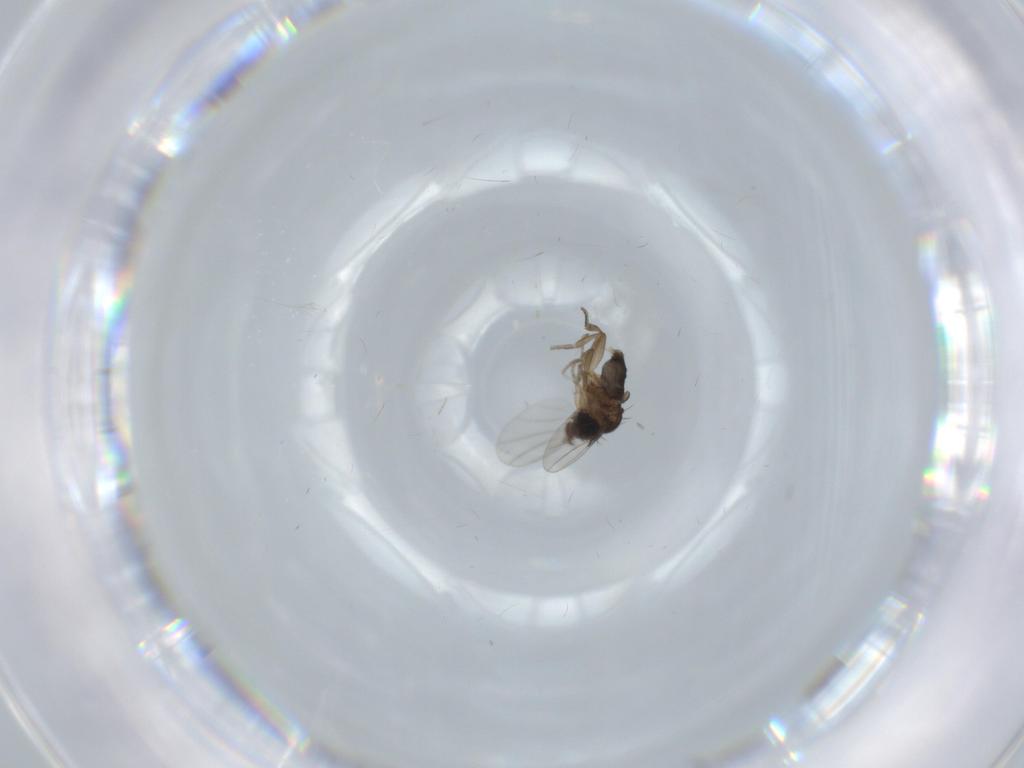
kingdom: Animalia
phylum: Arthropoda
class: Insecta
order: Diptera
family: Phoridae
